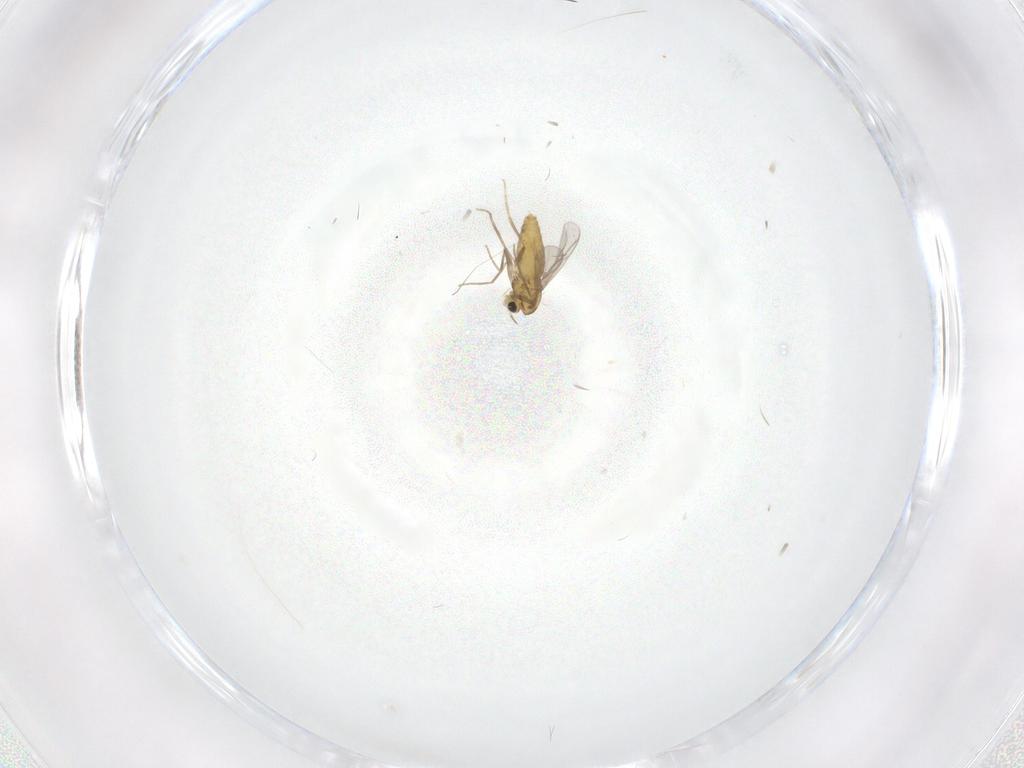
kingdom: Animalia
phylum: Arthropoda
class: Insecta
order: Diptera
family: Chironomidae
